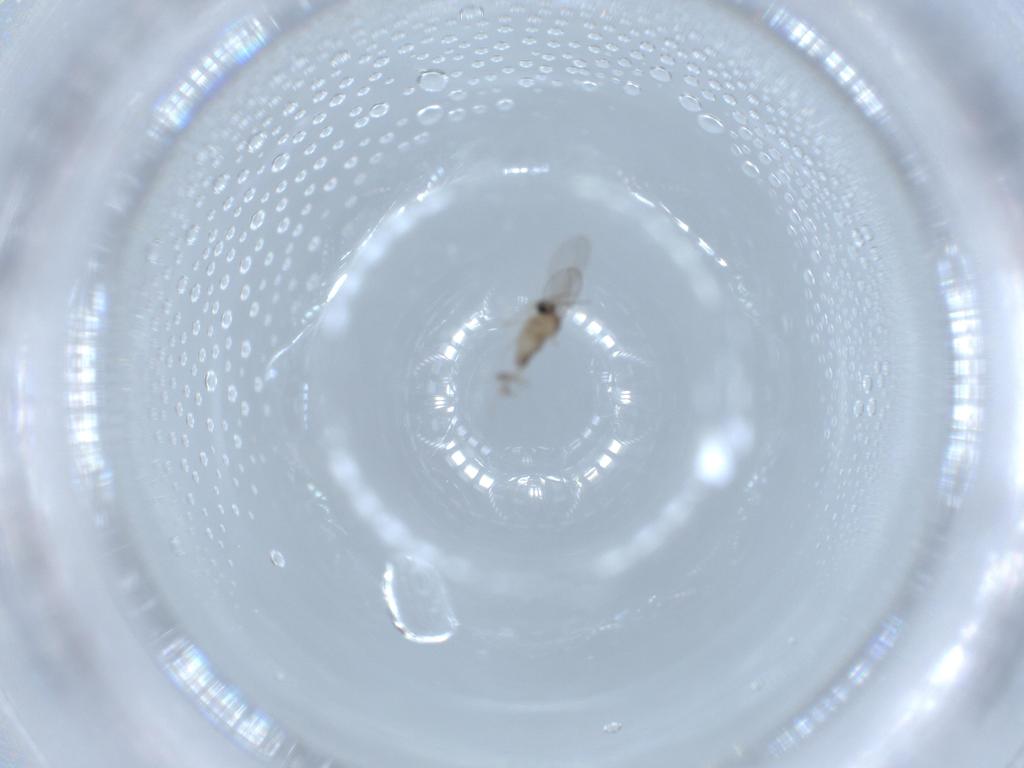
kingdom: Animalia
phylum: Arthropoda
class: Insecta
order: Diptera
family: Cecidomyiidae
